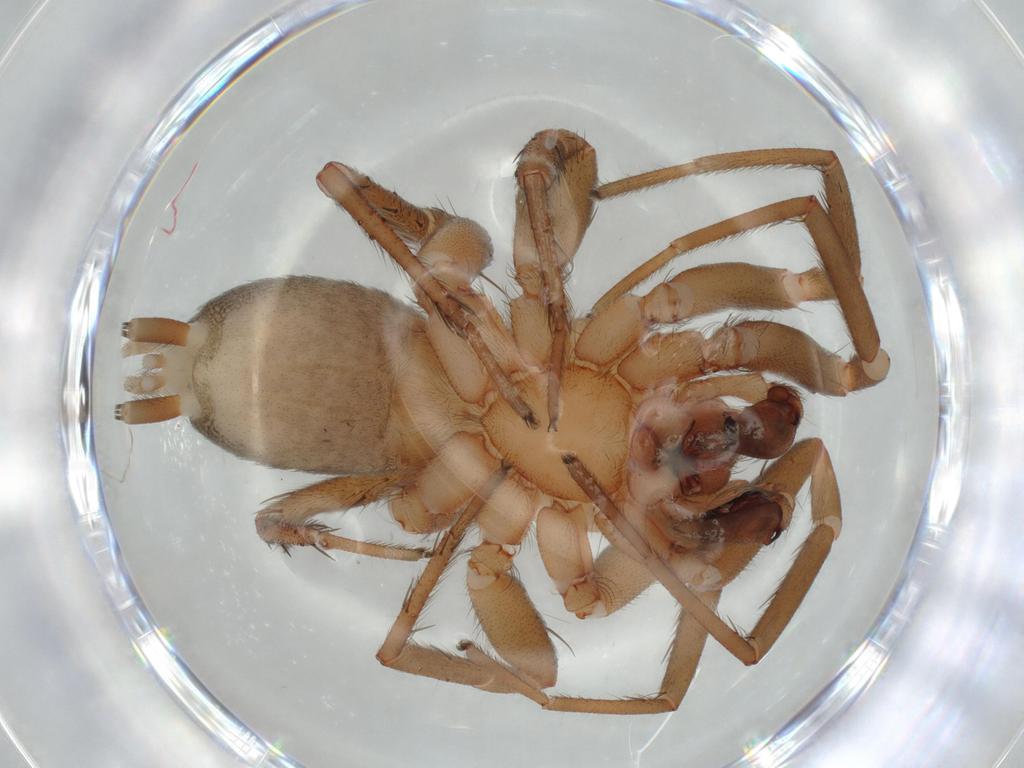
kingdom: Animalia
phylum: Arthropoda
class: Arachnida
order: Araneae
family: Gnaphosidae
